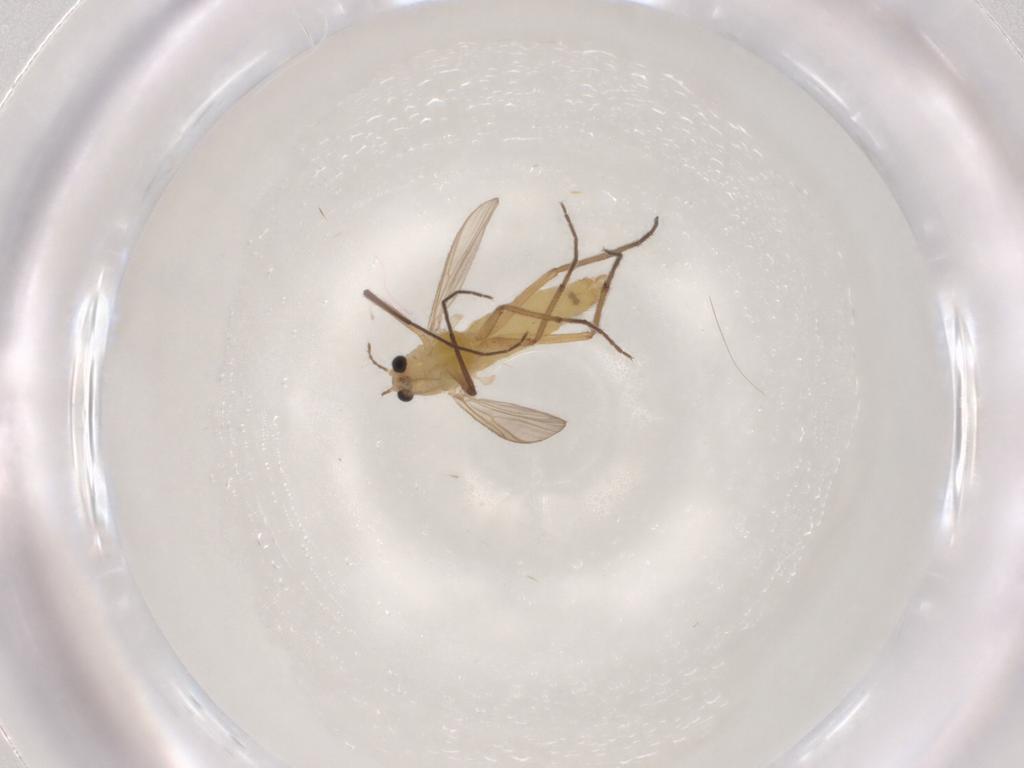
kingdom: Animalia
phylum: Arthropoda
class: Insecta
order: Diptera
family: Chironomidae
